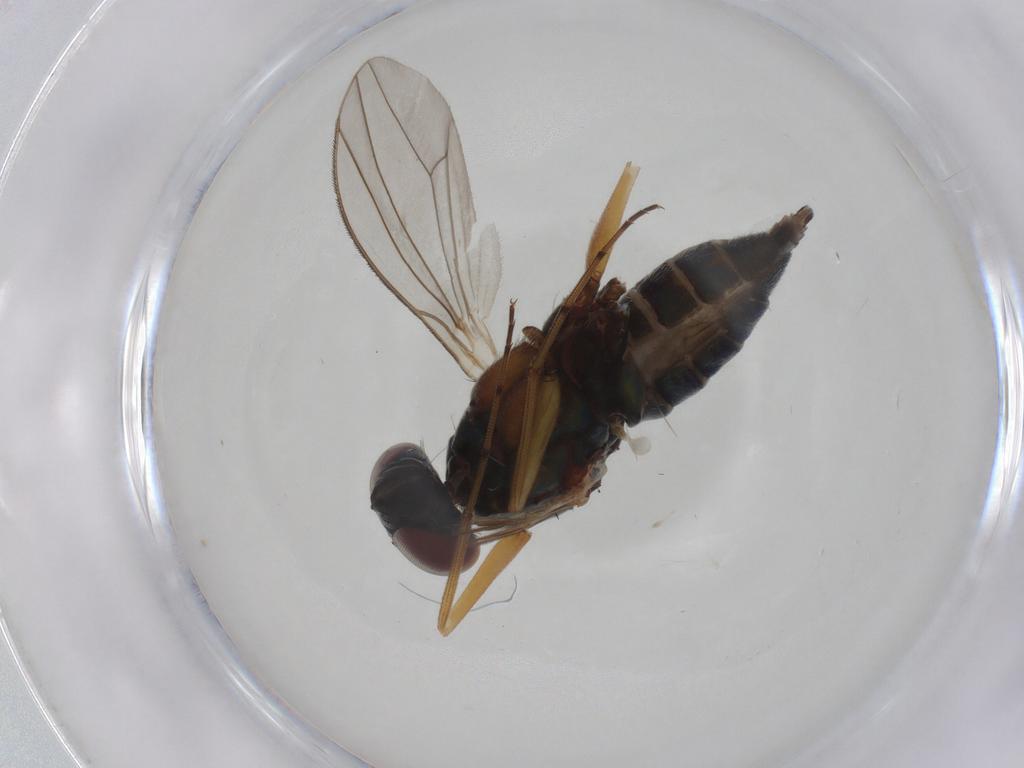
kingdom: Animalia
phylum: Arthropoda
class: Insecta
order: Diptera
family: Dolichopodidae
